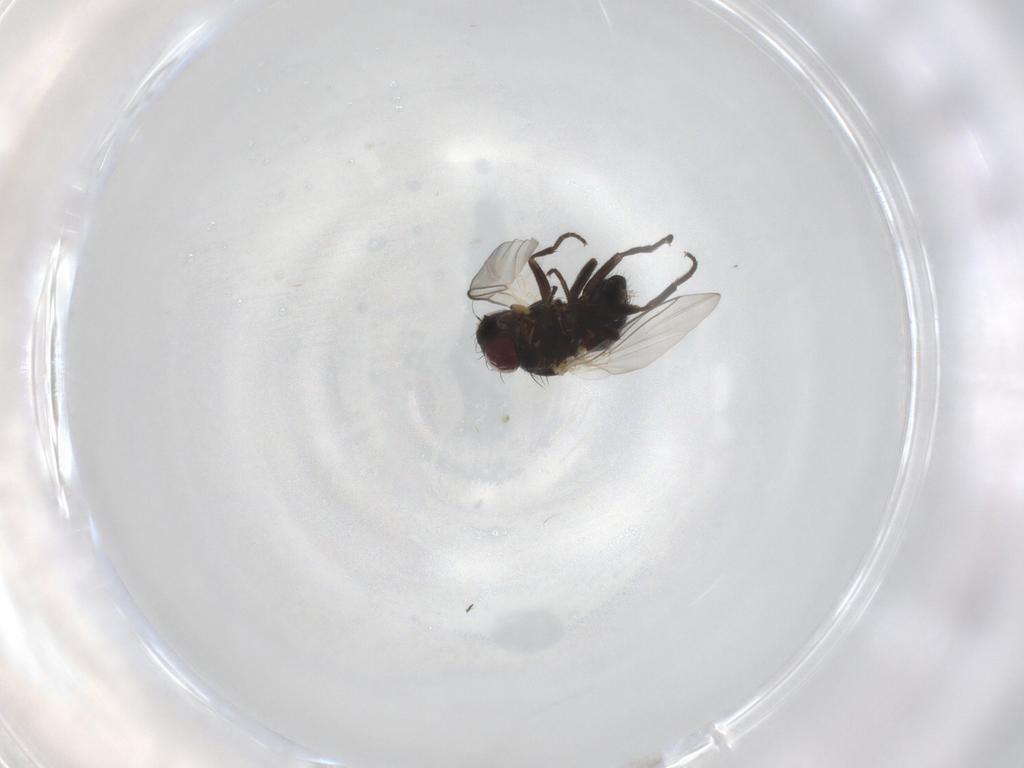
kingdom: Animalia
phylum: Arthropoda
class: Insecta
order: Diptera
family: Agromyzidae
